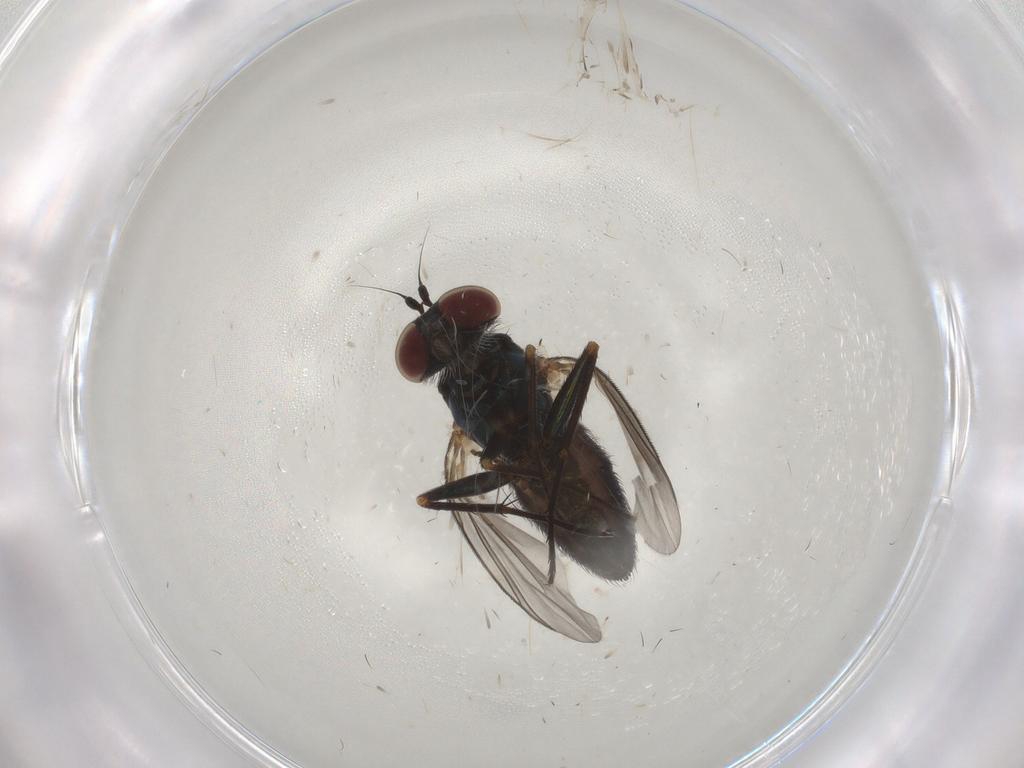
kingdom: Animalia
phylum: Arthropoda
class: Insecta
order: Diptera
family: Dolichopodidae
